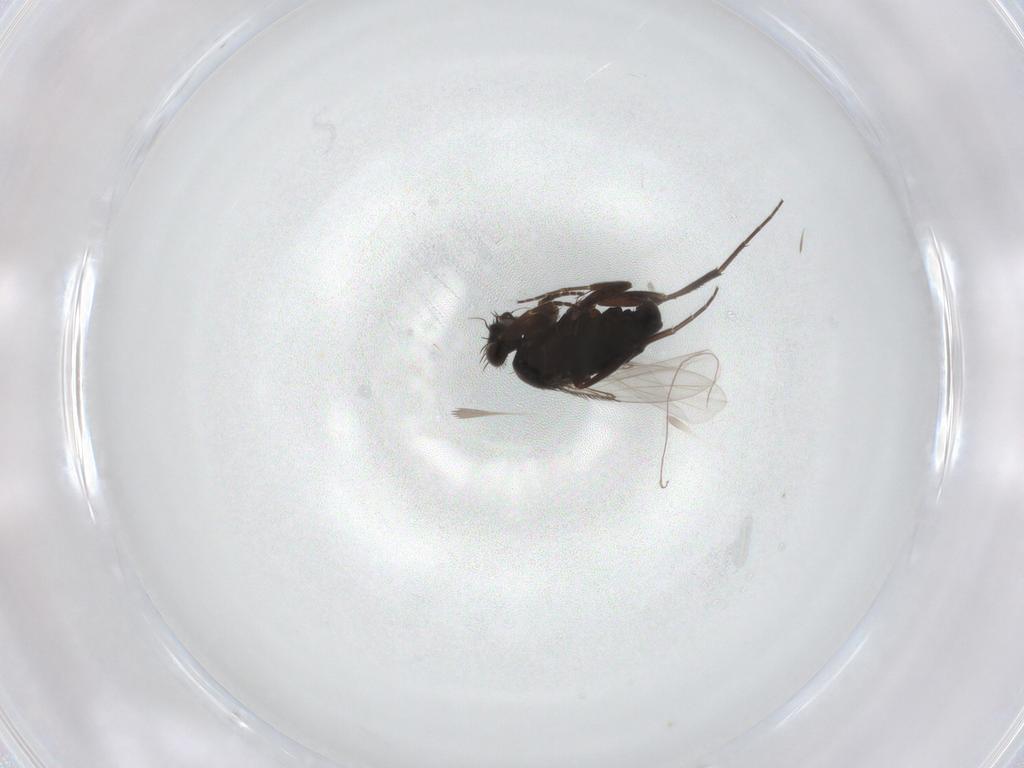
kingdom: Animalia
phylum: Arthropoda
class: Insecta
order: Diptera
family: Phoridae
